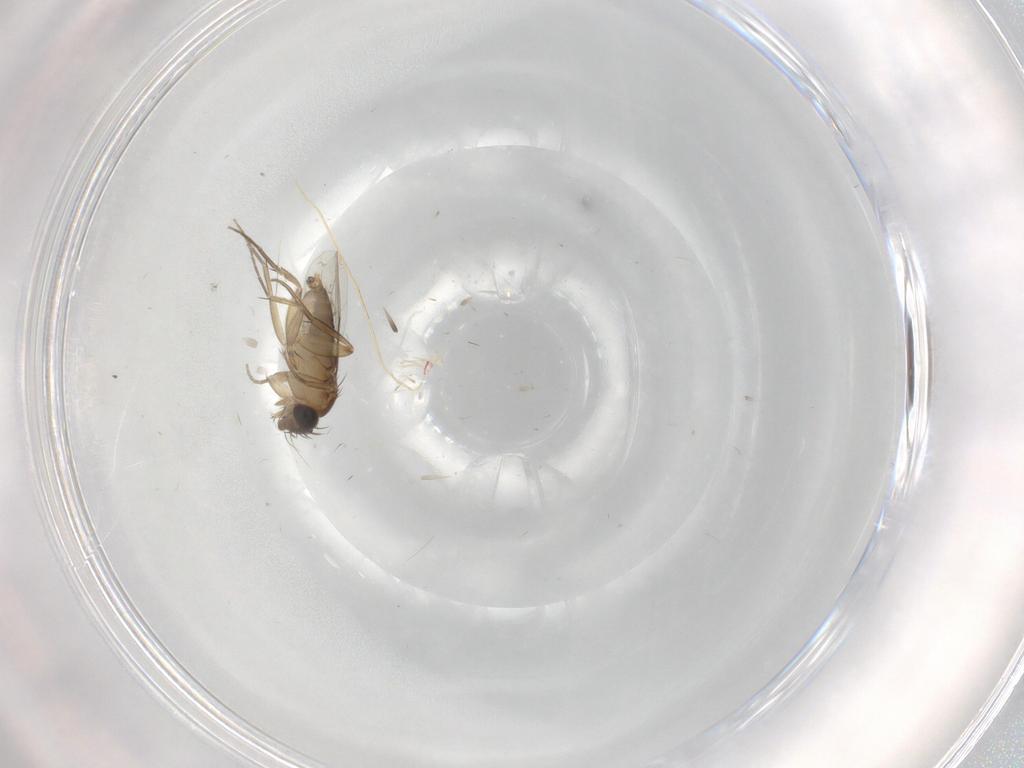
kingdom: Animalia
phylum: Arthropoda
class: Insecta
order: Diptera
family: Phoridae
